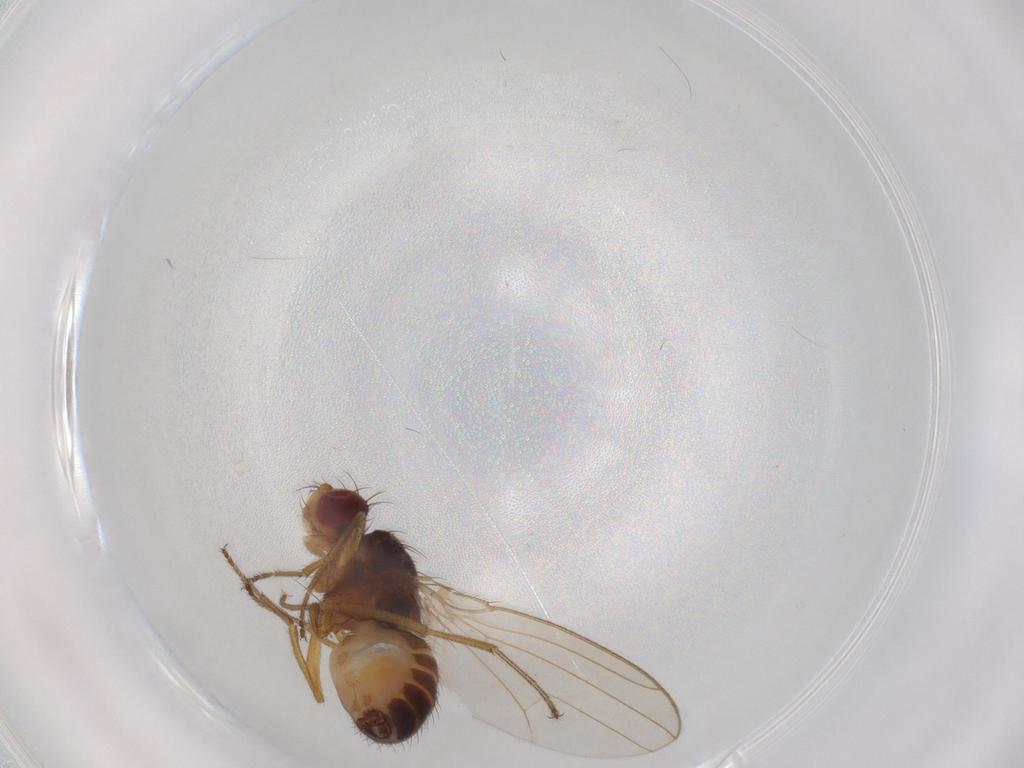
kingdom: Animalia
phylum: Arthropoda
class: Insecta
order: Diptera
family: Drosophilidae
